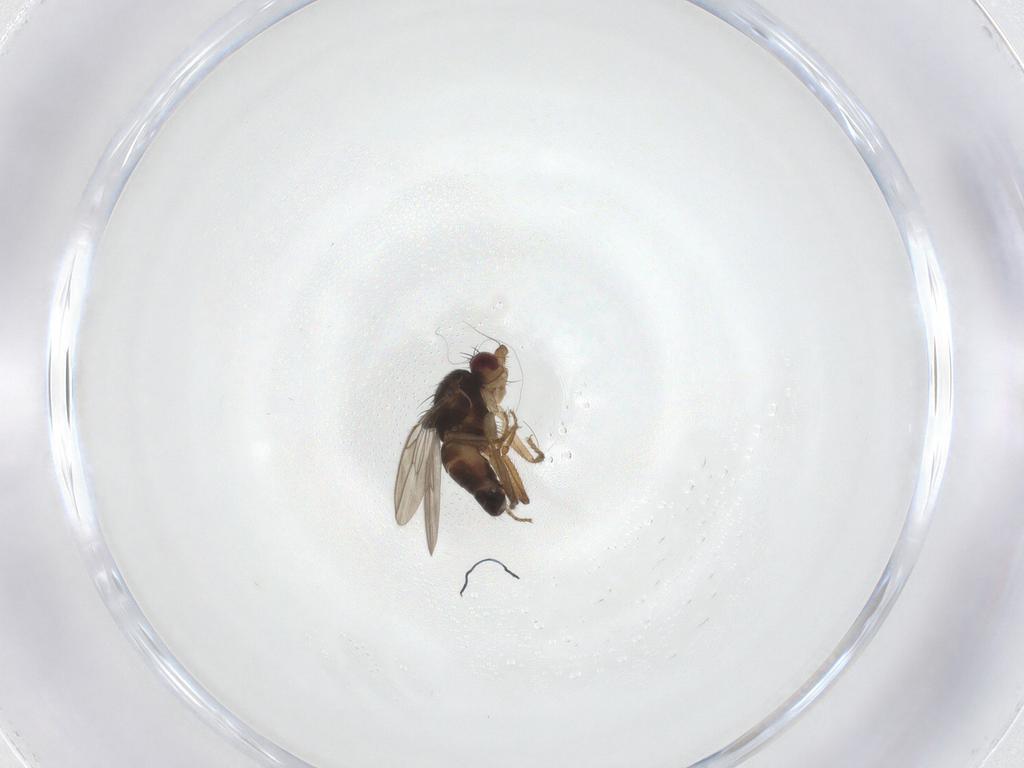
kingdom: Animalia
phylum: Arthropoda
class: Insecta
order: Diptera
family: Sphaeroceridae
